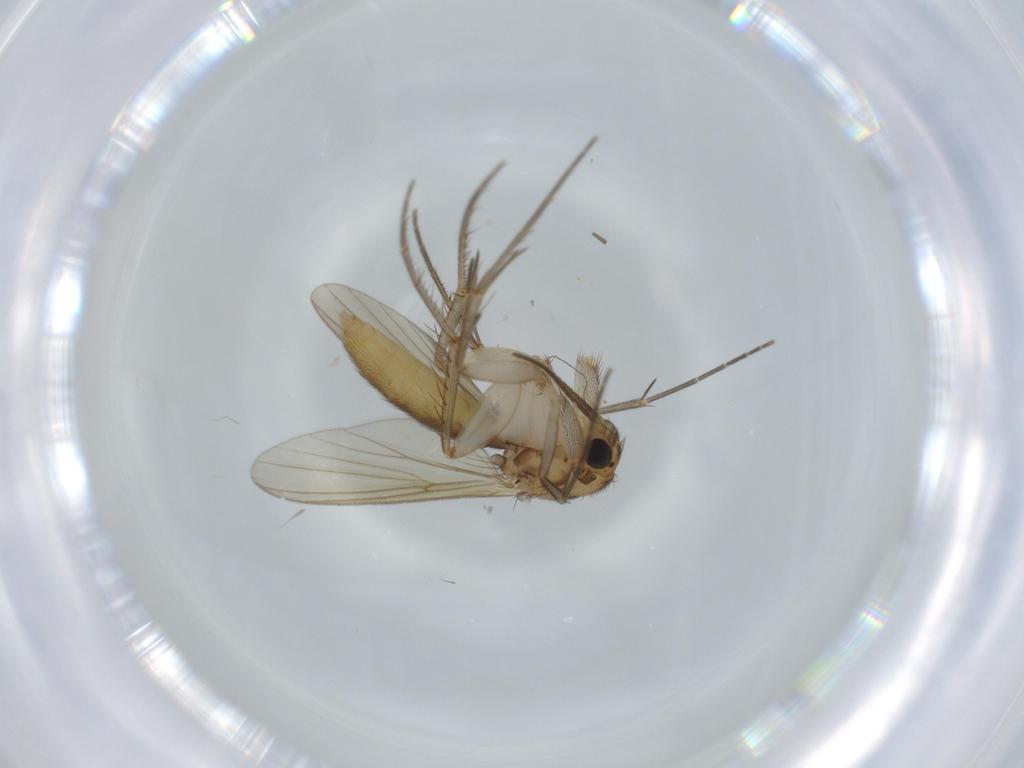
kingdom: Animalia
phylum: Arthropoda
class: Insecta
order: Diptera
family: Mycetophilidae
